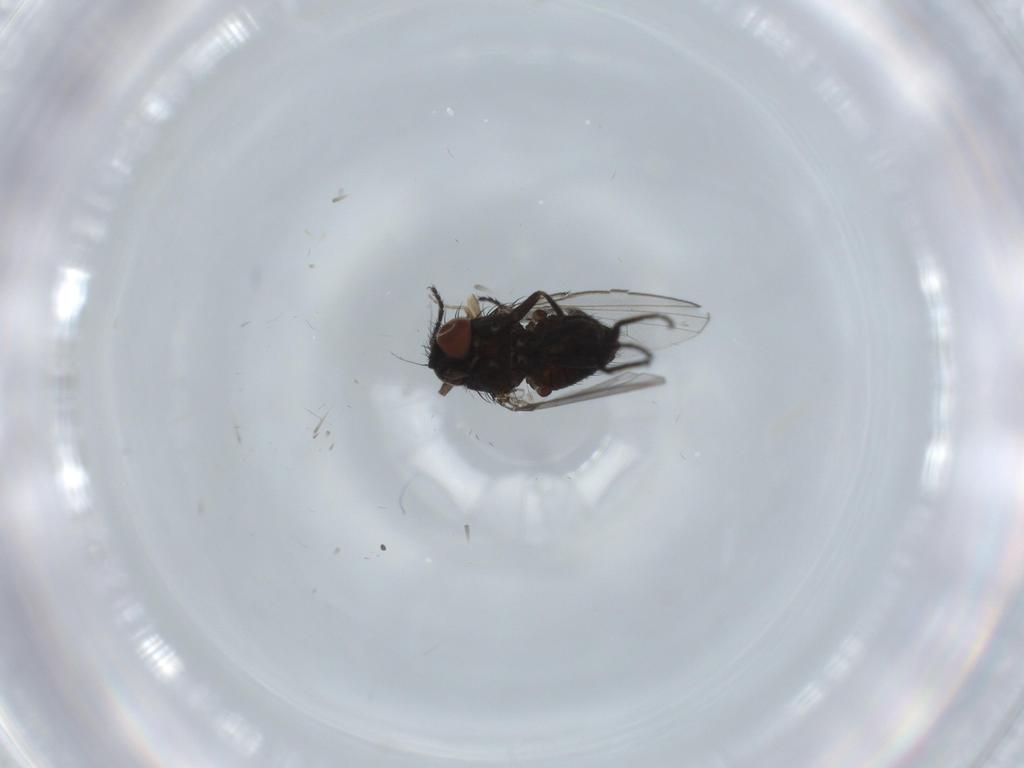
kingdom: Animalia
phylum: Arthropoda
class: Insecta
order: Diptera
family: Milichiidae
